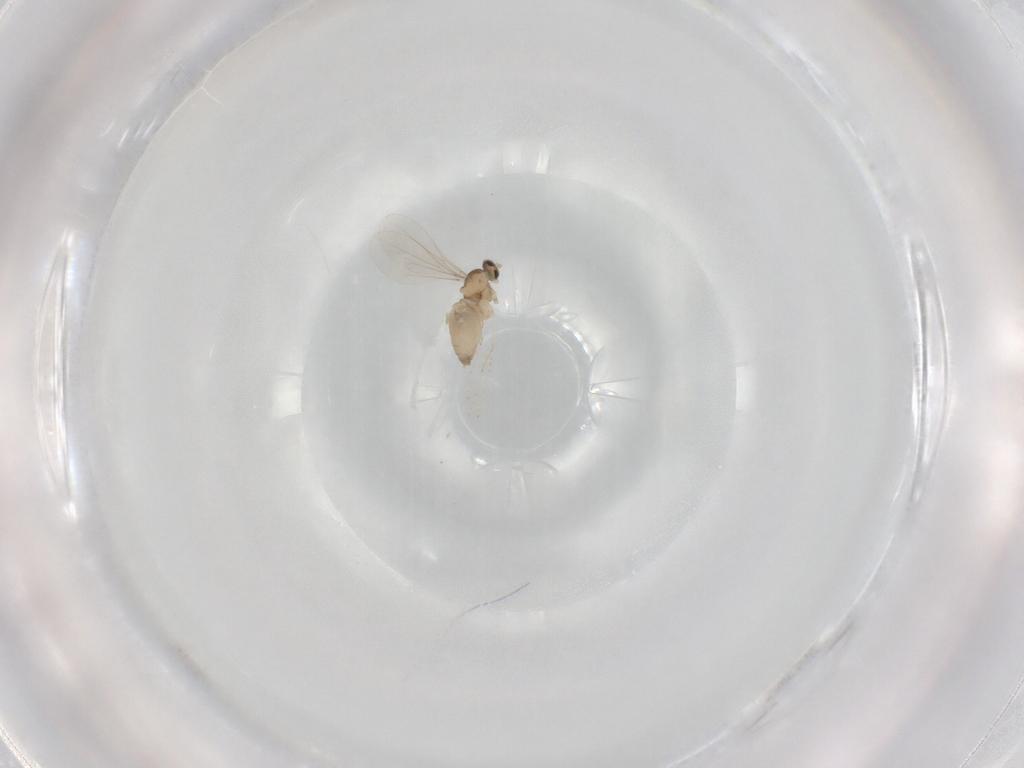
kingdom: Animalia
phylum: Arthropoda
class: Insecta
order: Diptera
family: Cecidomyiidae
